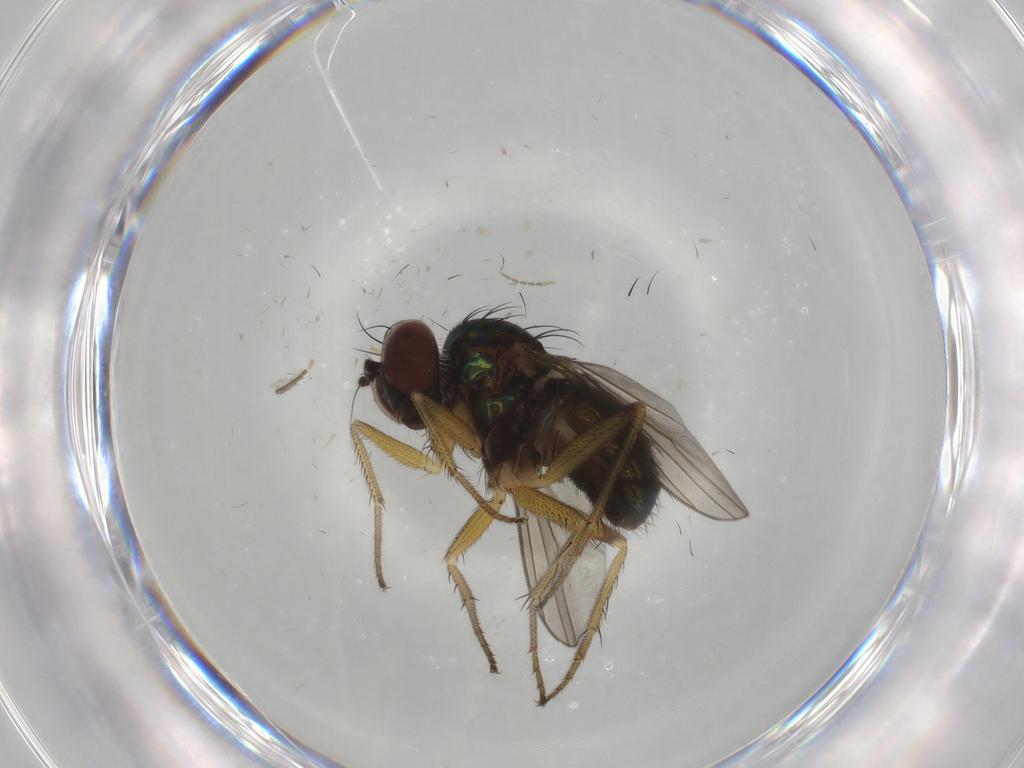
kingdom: Animalia
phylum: Arthropoda
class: Insecta
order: Diptera
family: Dolichopodidae
